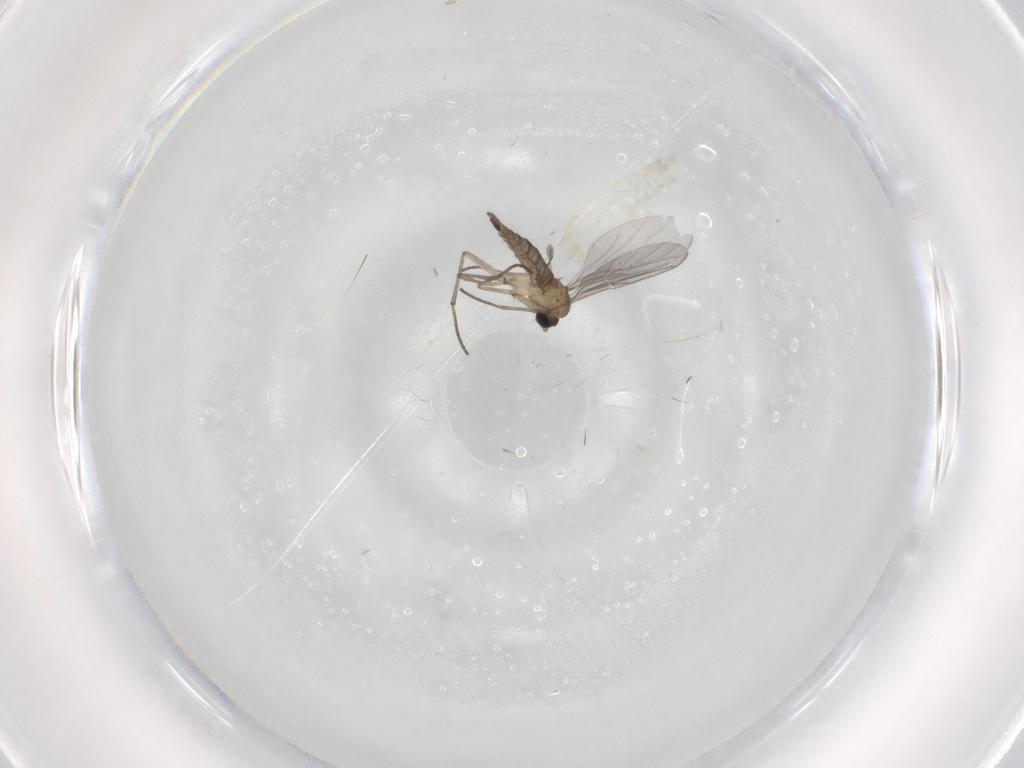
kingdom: Animalia
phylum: Arthropoda
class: Insecta
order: Diptera
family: Sciaridae
